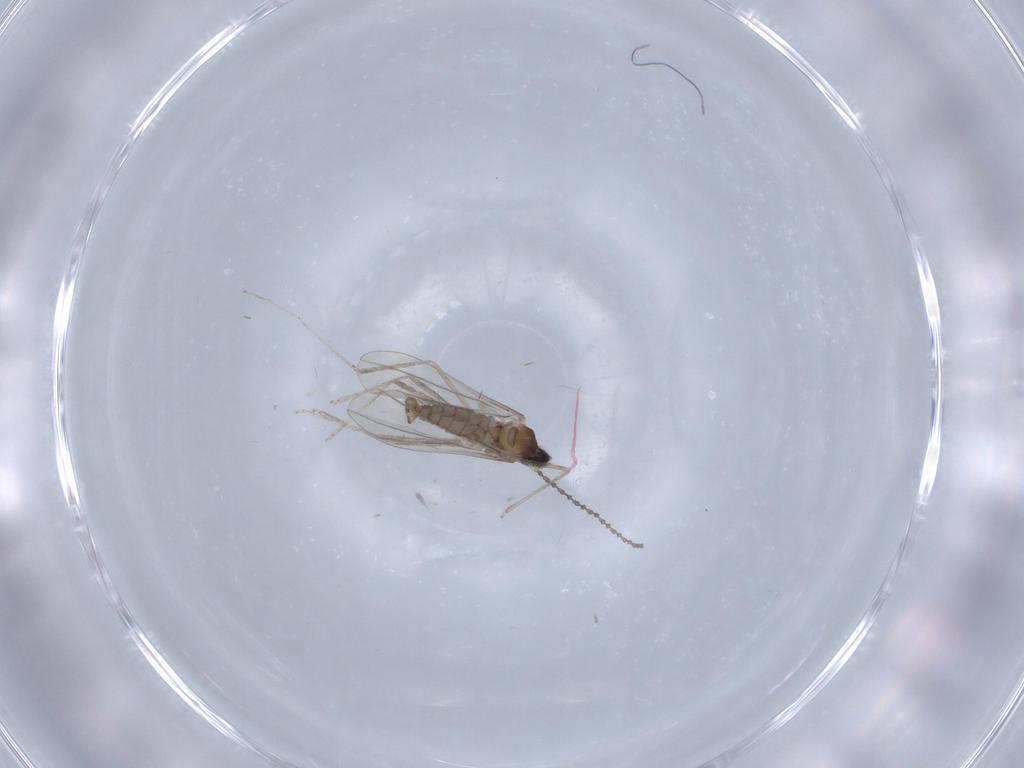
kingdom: Animalia
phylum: Arthropoda
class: Insecta
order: Diptera
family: Cecidomyiidae
